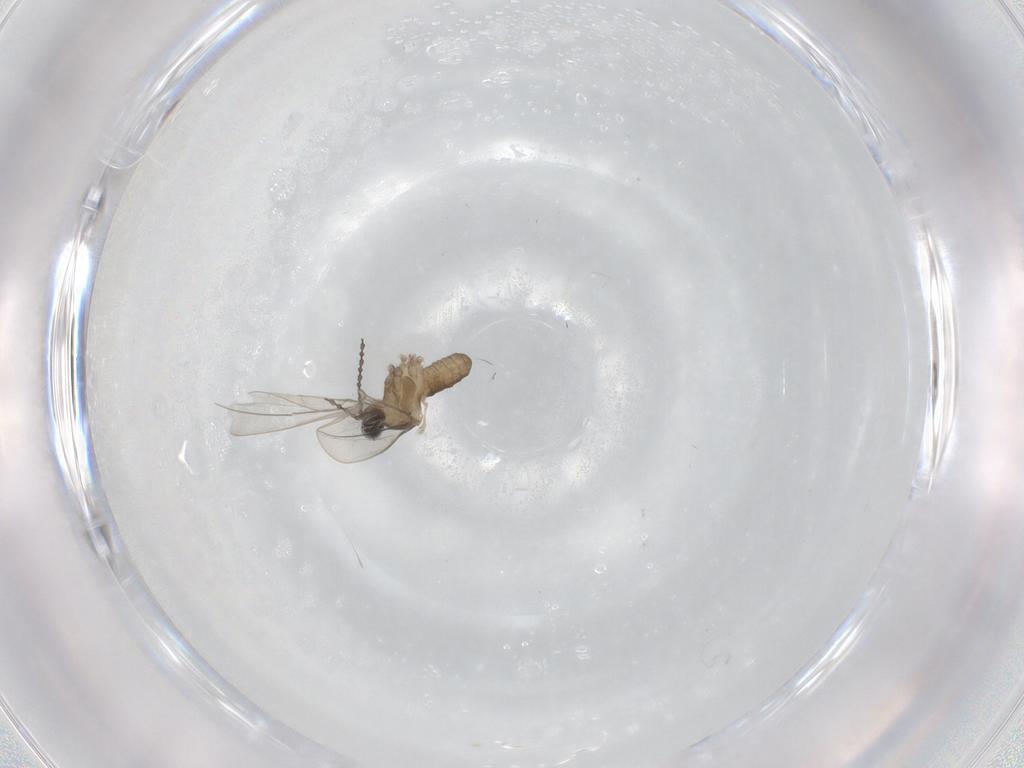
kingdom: Animalia
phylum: Arthropoda
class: Insecta
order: Diptera
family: Cecidomyiidae
